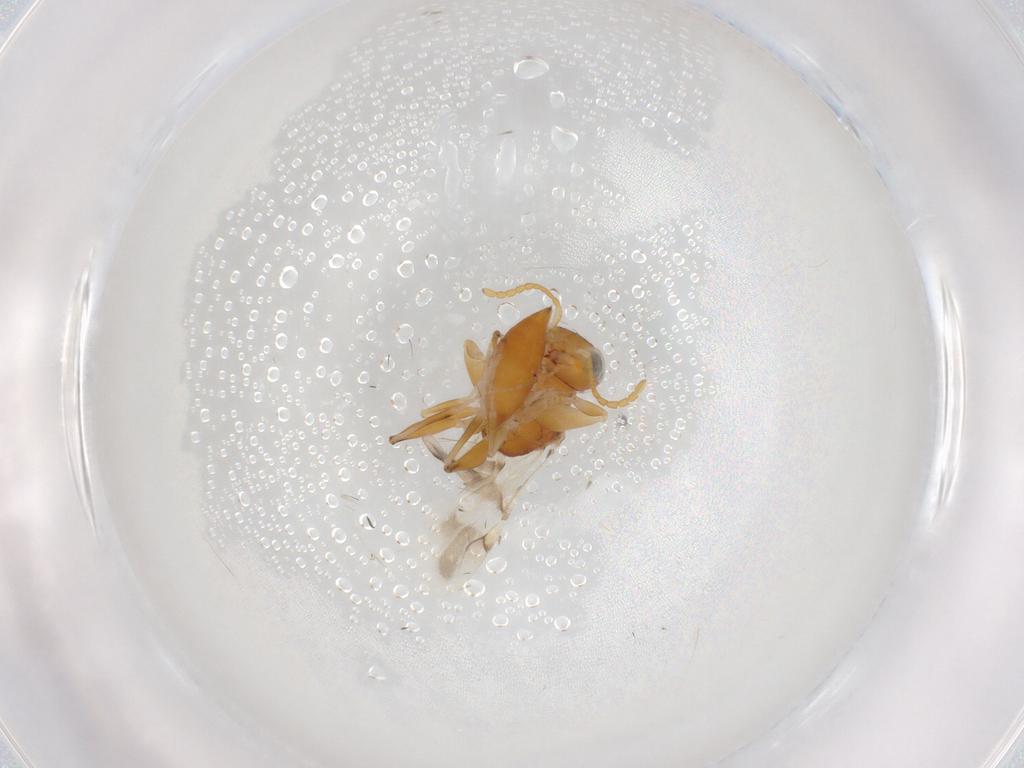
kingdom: Animalia
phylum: Arthropoda
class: Insecta
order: Hymenoptera
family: Dryinidae
